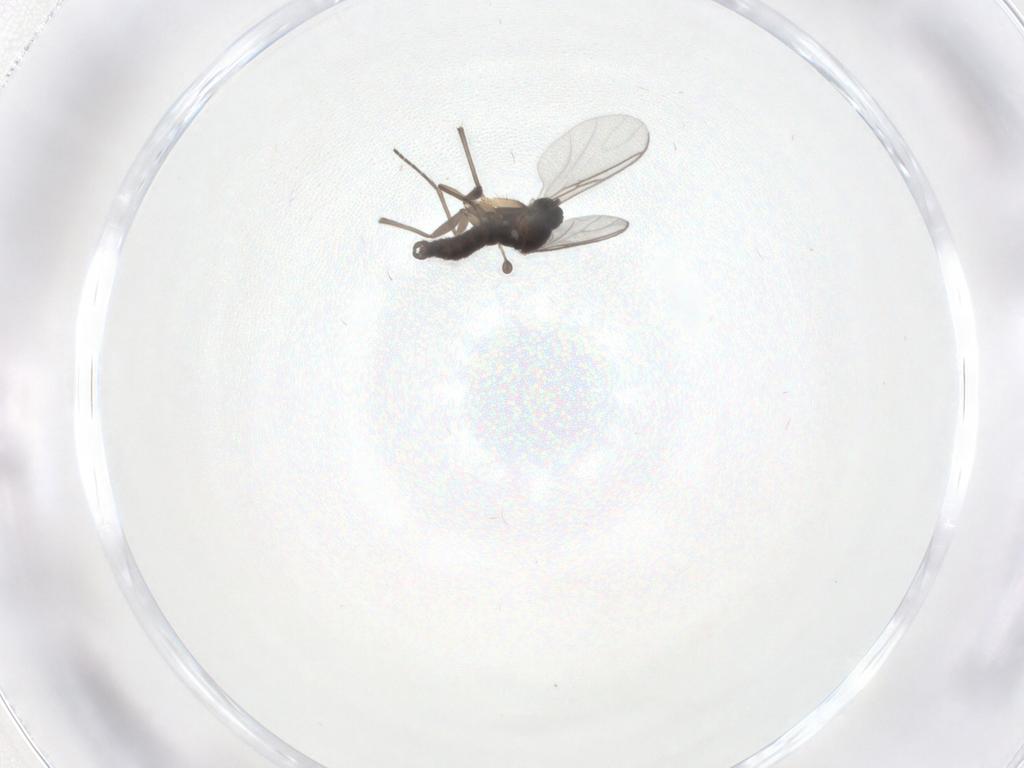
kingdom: Animalia
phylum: Arthropoda
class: Insecta
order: Diptera
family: Sciaridae
